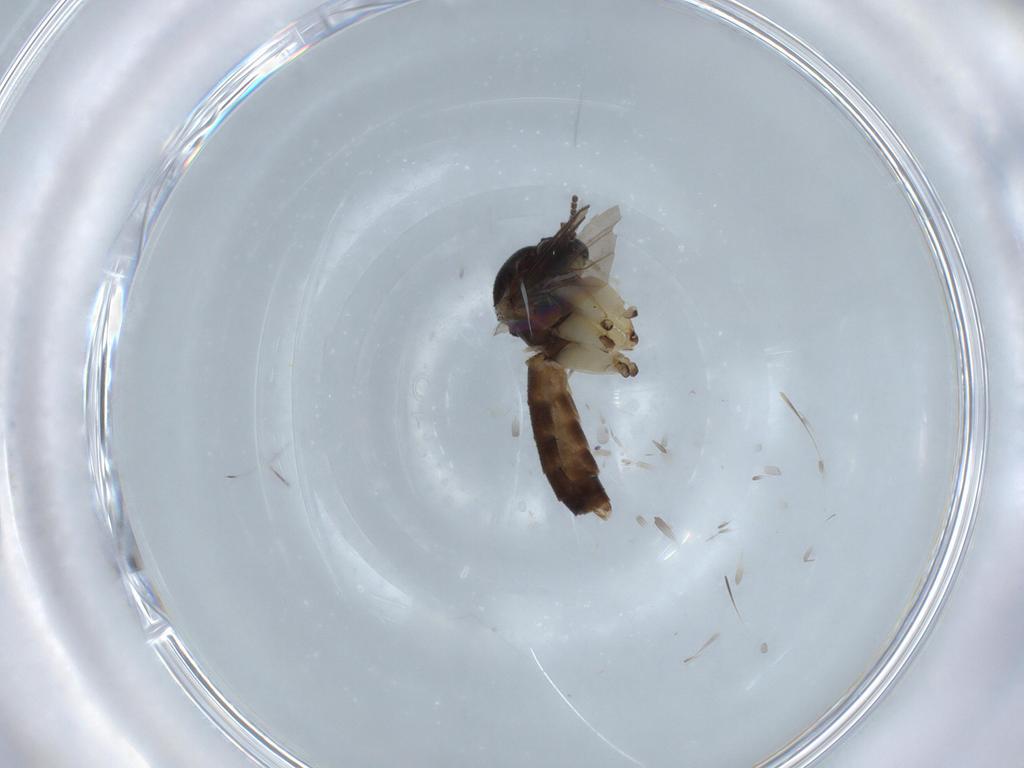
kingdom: Animalia
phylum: Arthropoda
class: Insecta
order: Diptera
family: Mycetophilidae
